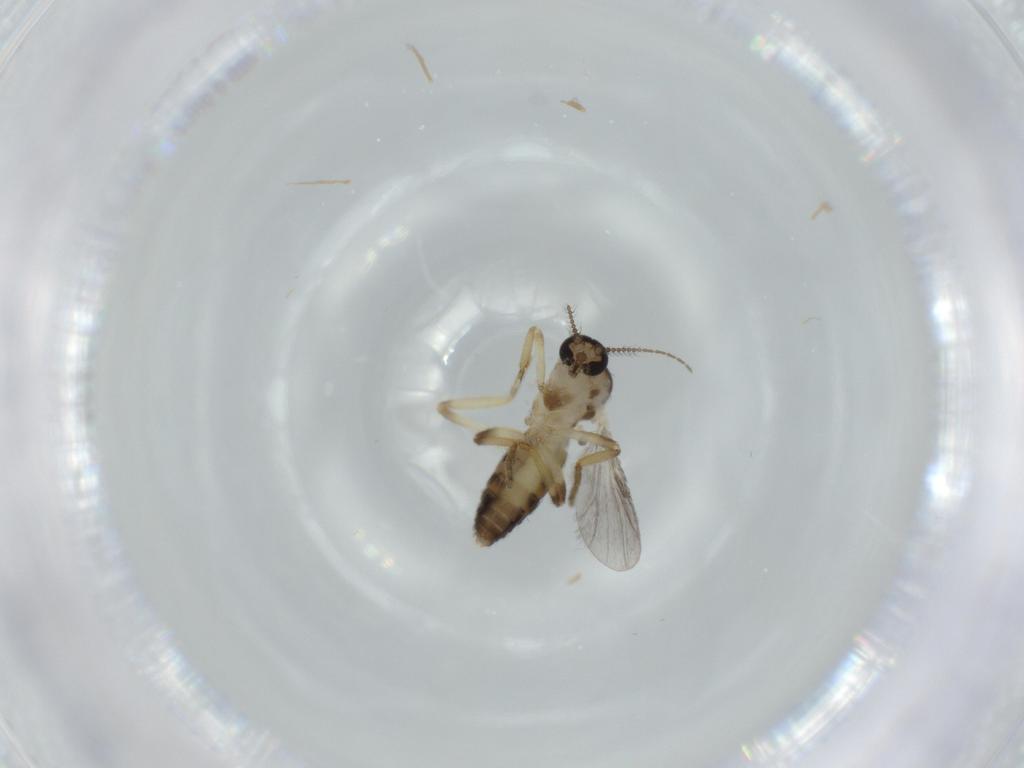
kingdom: Animalia
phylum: Arthropoda
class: Insecta
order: Diptera
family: Ceratopogonidae
